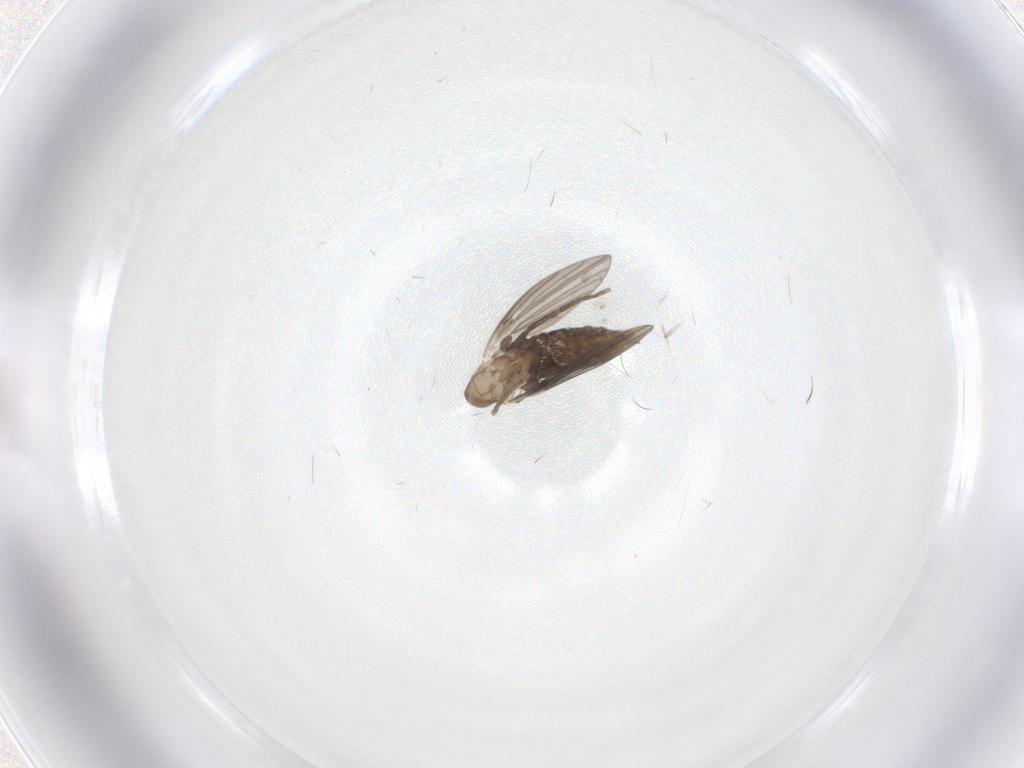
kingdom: Animalia
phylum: Arthropoda
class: Insecta
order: Diptera
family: Psychodidae
